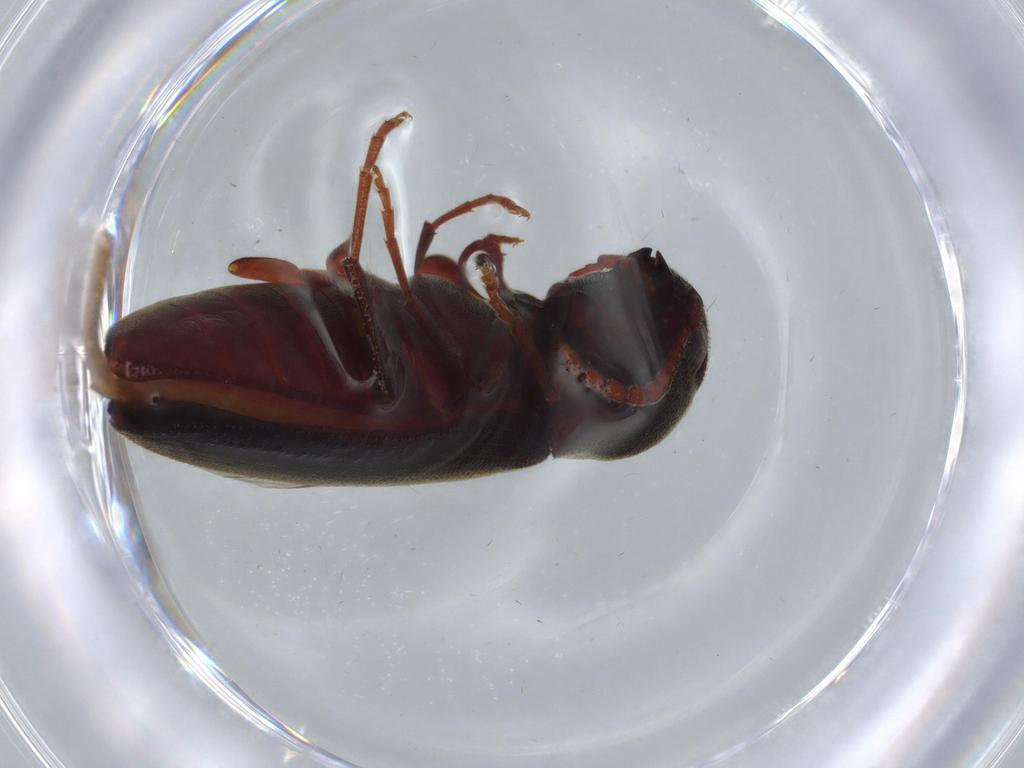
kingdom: Animalia
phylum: Arthropoda
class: Insecta
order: Coleoptera
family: Eucnemidae
